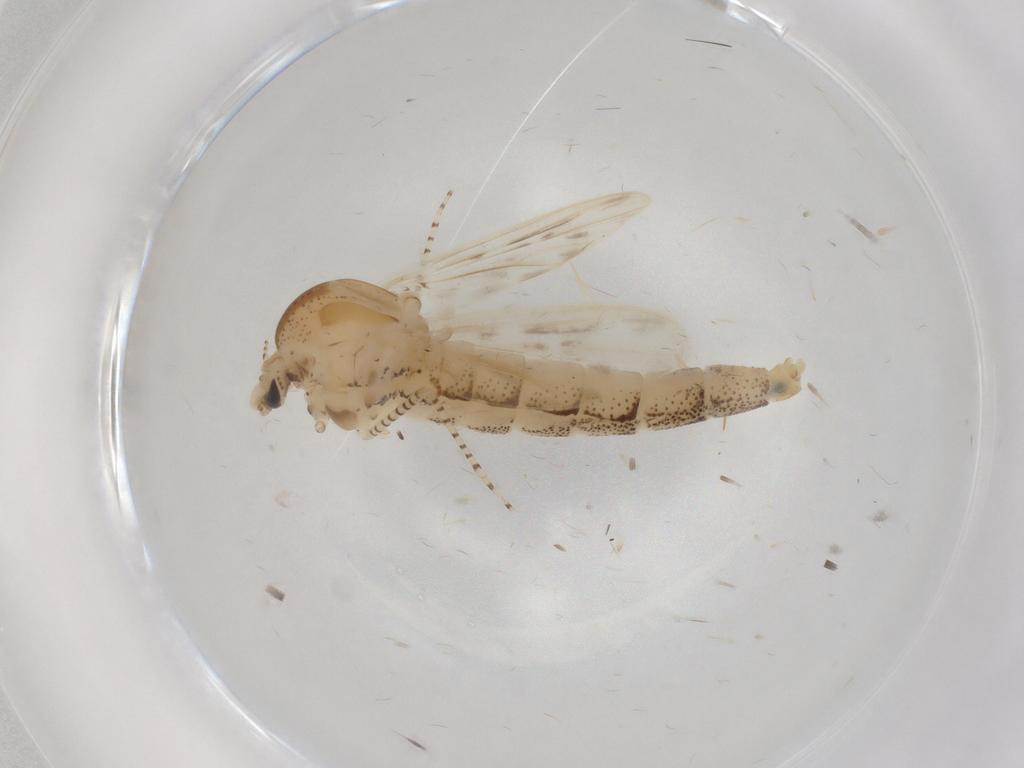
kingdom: Animalia
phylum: Arthropoda
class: Insecta
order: Diptera
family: Chaoboridae
